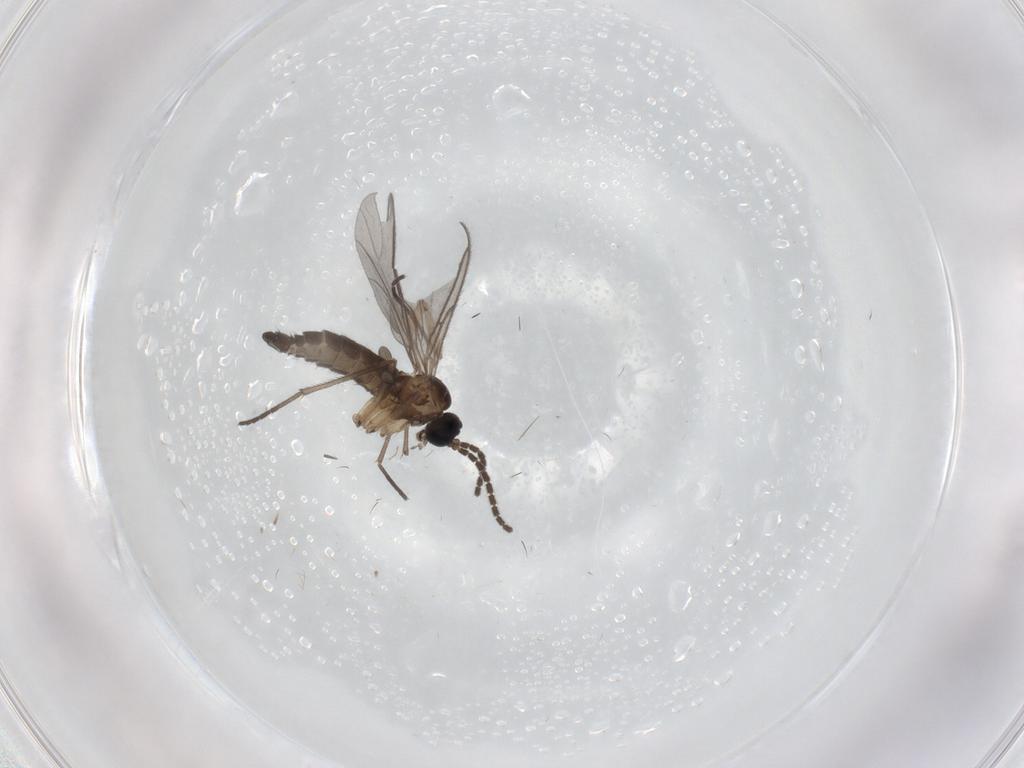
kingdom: Animalia
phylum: Arthropoda
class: Insecta
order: Diptera
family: Sciaridae
